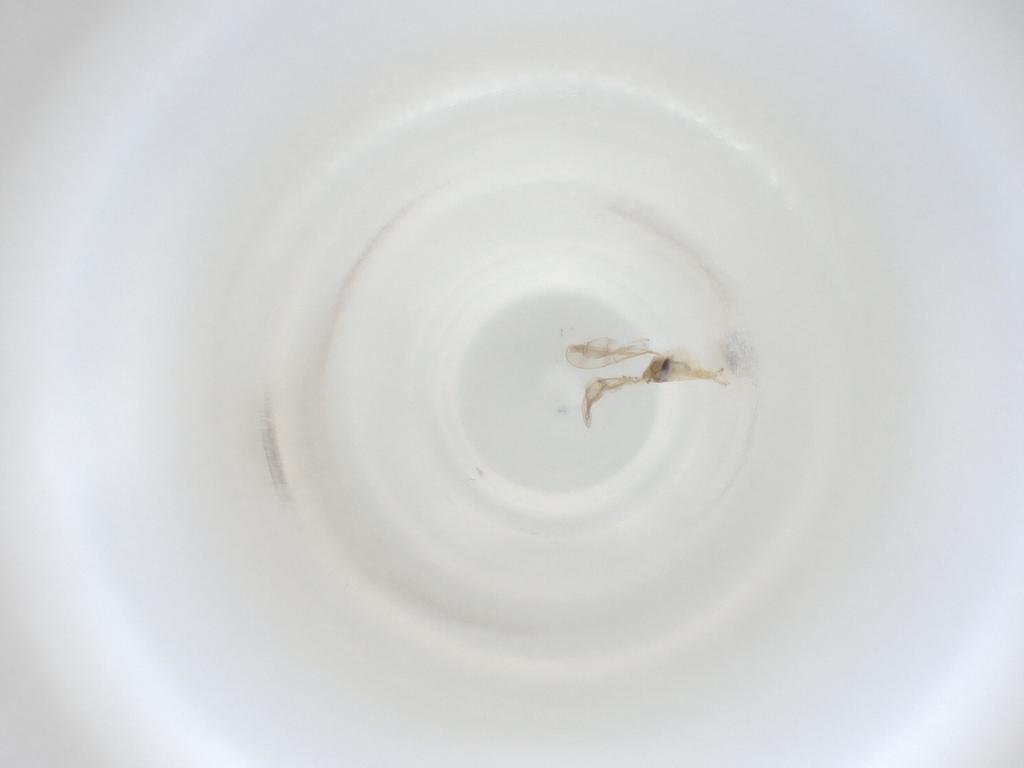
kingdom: Animalia
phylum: Arthropoda
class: Insecta
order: Diptera
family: Cecidomyiidae
